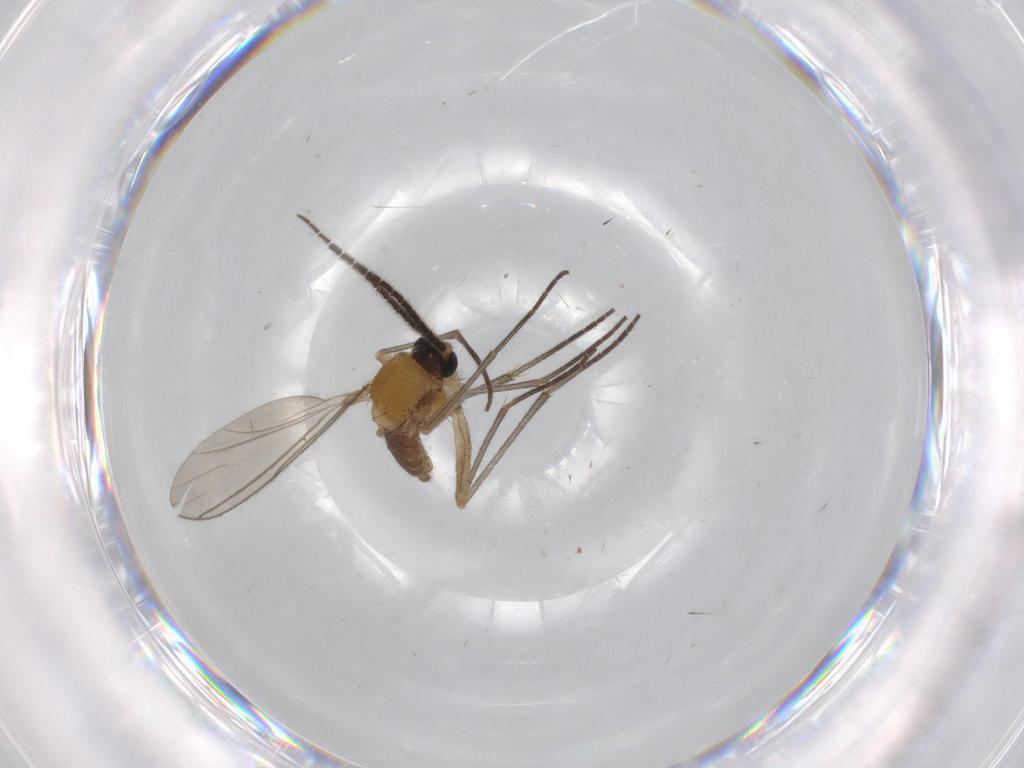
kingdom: Animalia
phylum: Arthropoda
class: Insecta
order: Diptera
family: Sciaridae
